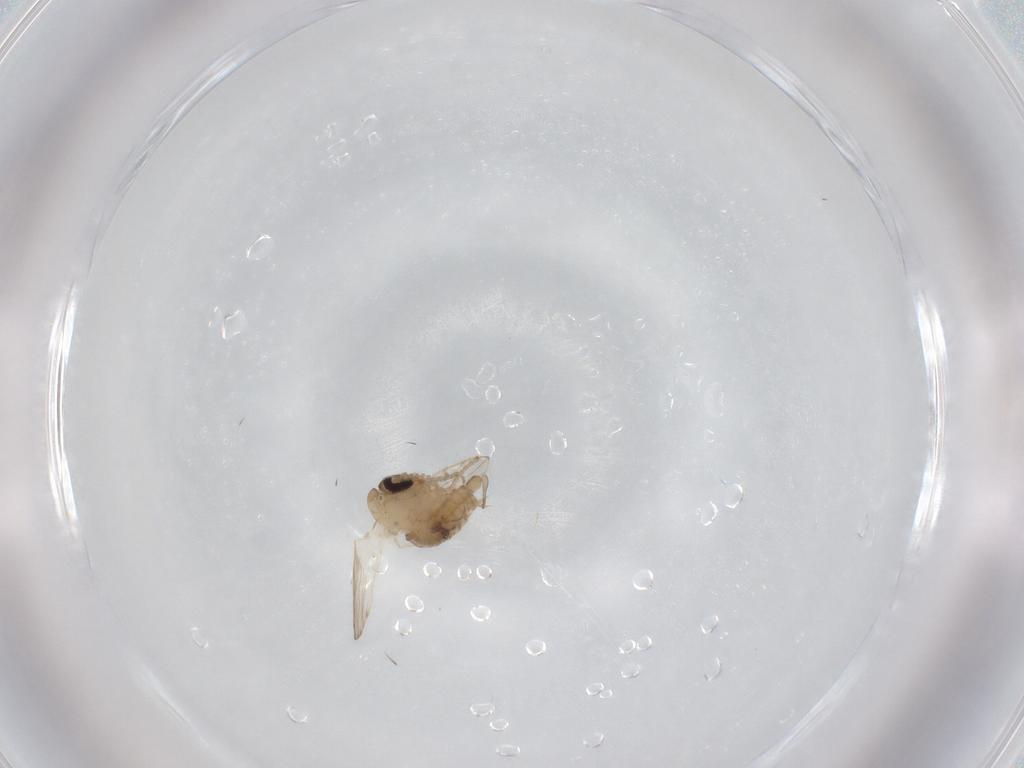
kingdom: Animalia
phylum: Arthropoda
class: Insecta
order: Diptera
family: Psychodidae
